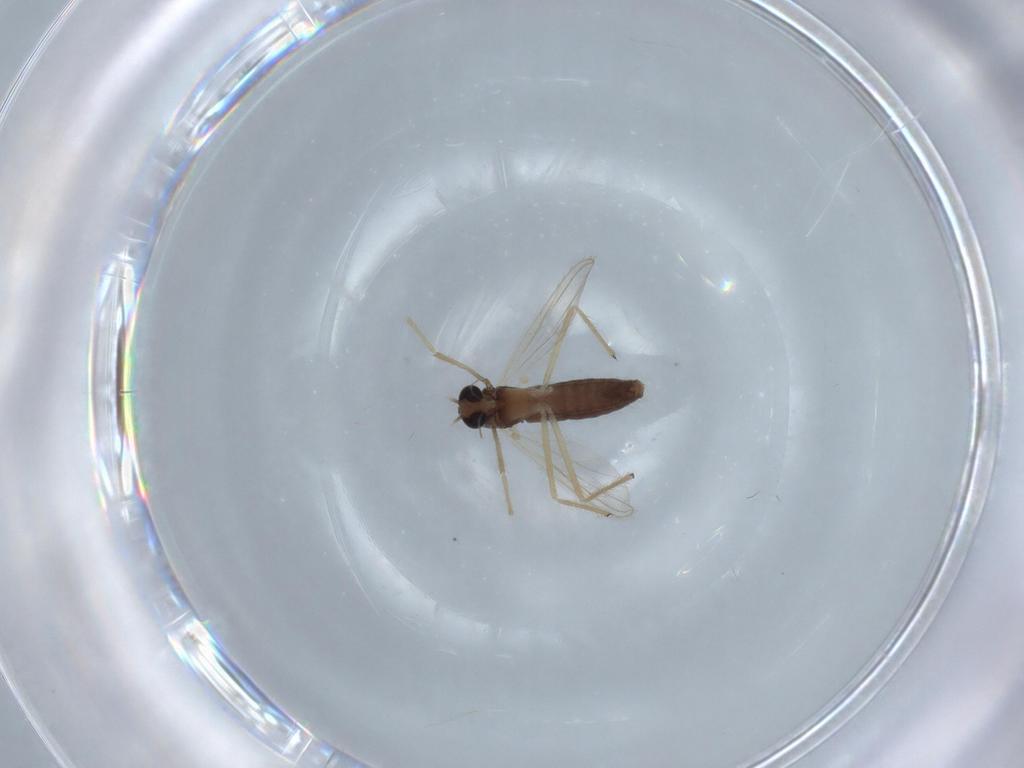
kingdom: Animalia
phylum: Arthropoda
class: Insecta
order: Diptera
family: Chironomidae
